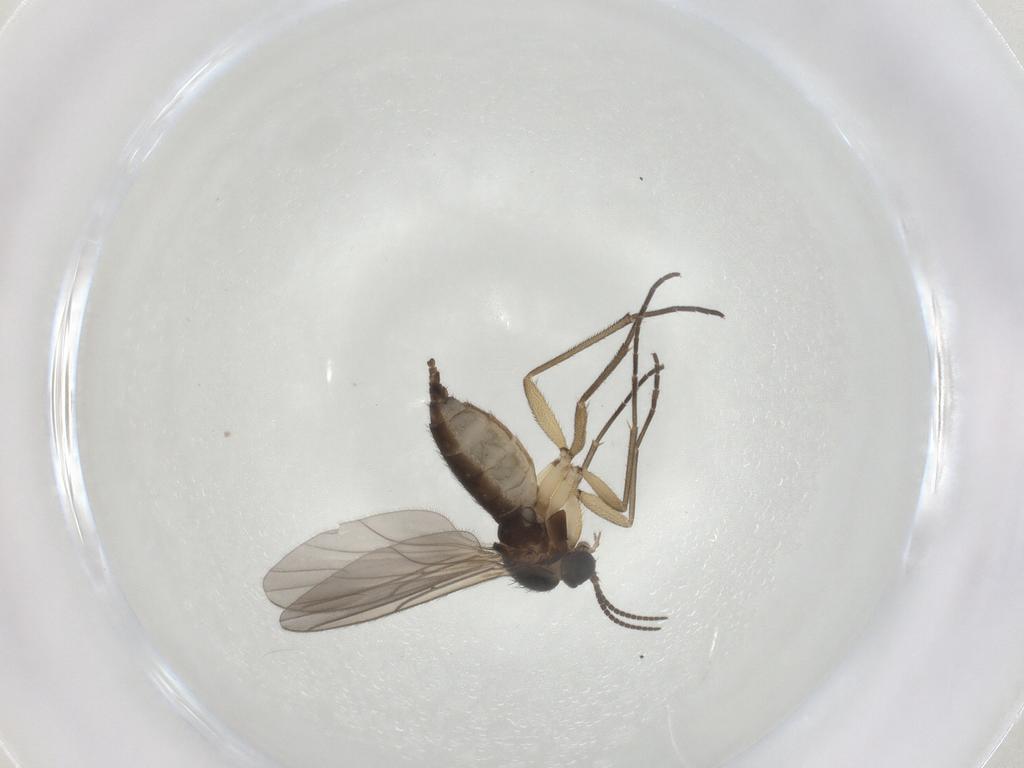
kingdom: Animalia
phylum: Arthropoda
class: Insecta
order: Diptera
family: Sciaridae
